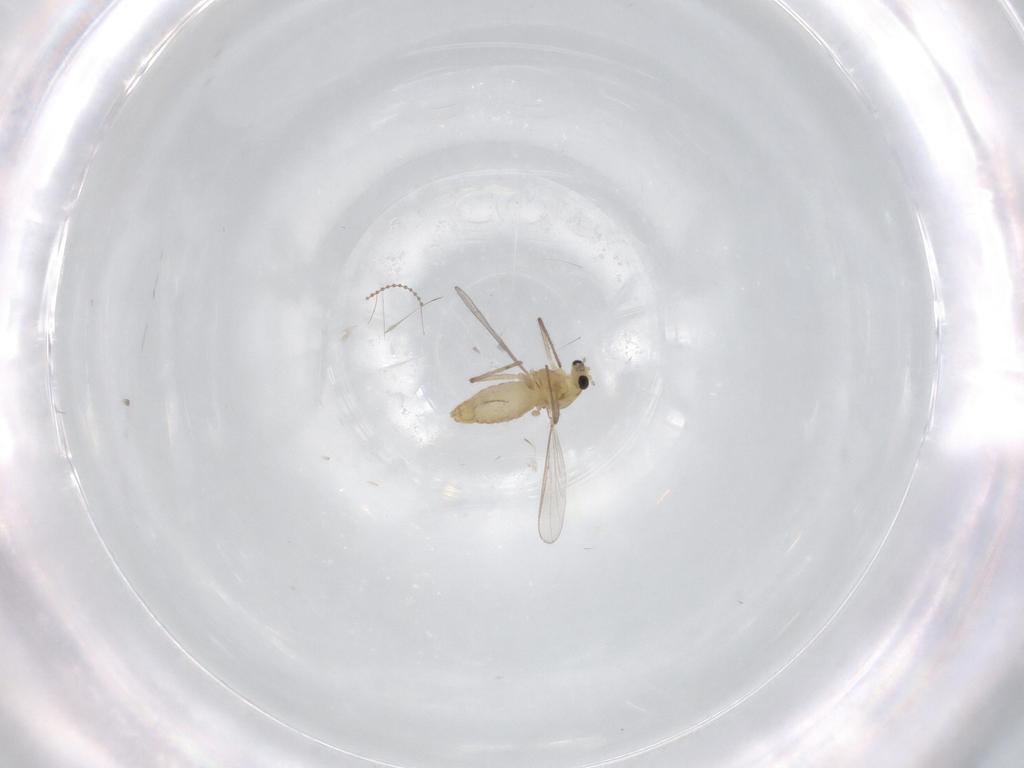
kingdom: Animalia
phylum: Arthropoda
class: Insecta
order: Diptera
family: Chironomidae
